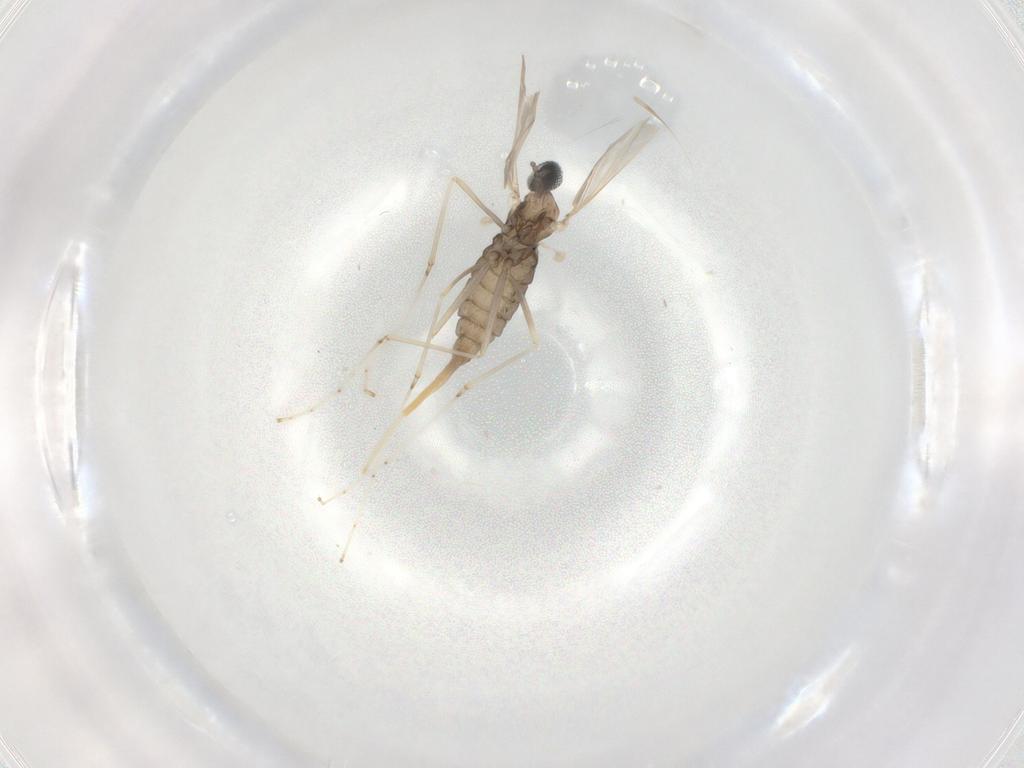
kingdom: Animalia
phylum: Arthropoda
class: Insecta
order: Diptera
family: Cecidomyiidae
